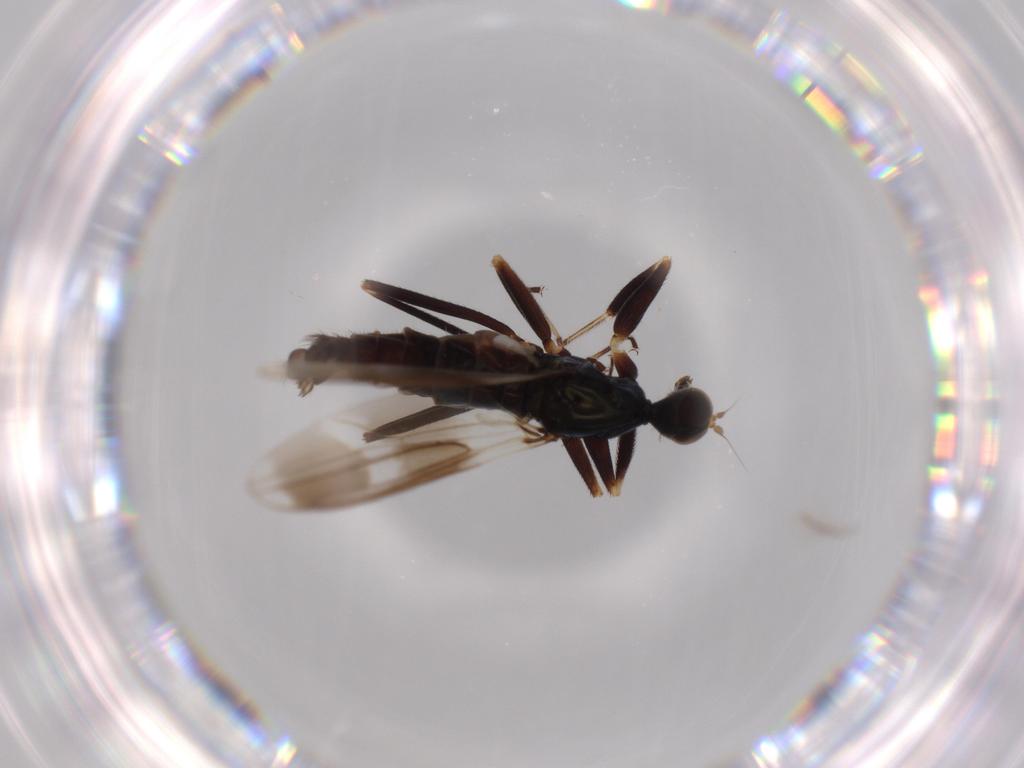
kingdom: Animalia
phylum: Arthropoda
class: Insecta
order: Diptera
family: Hybotidae
